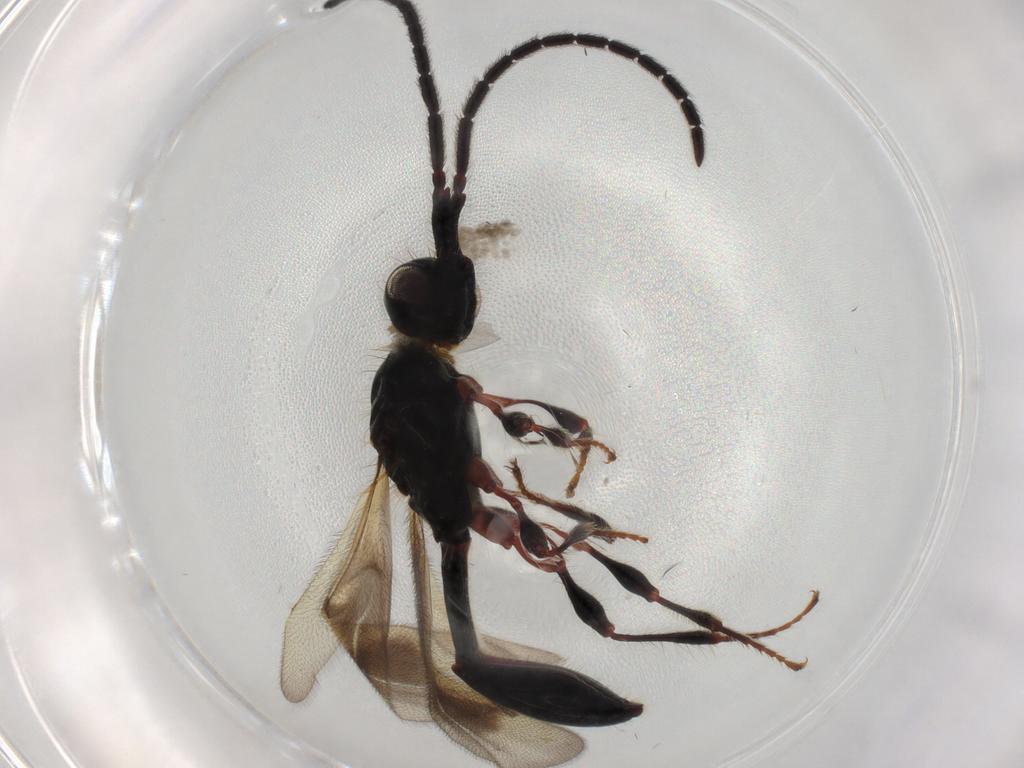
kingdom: Animalia
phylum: Arthropoda
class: Insecta
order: Hymenoptera
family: Diapriidae
